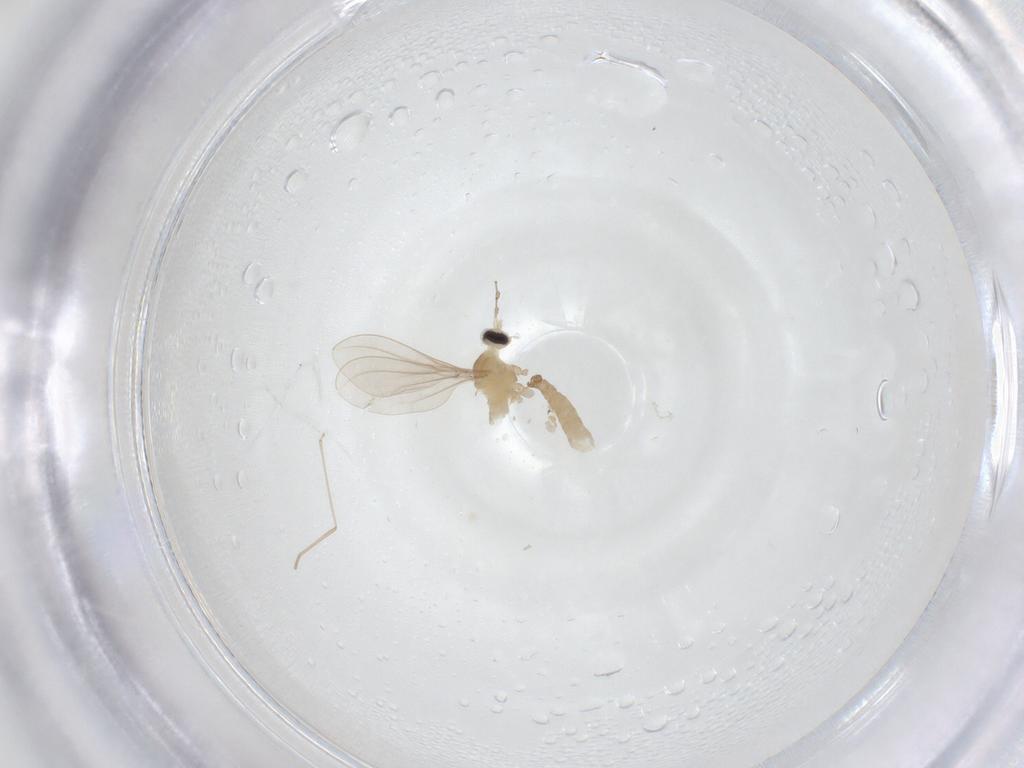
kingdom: Animalia
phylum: Arthropoda
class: Insecta
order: Diptera
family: Cecidomyiidae
